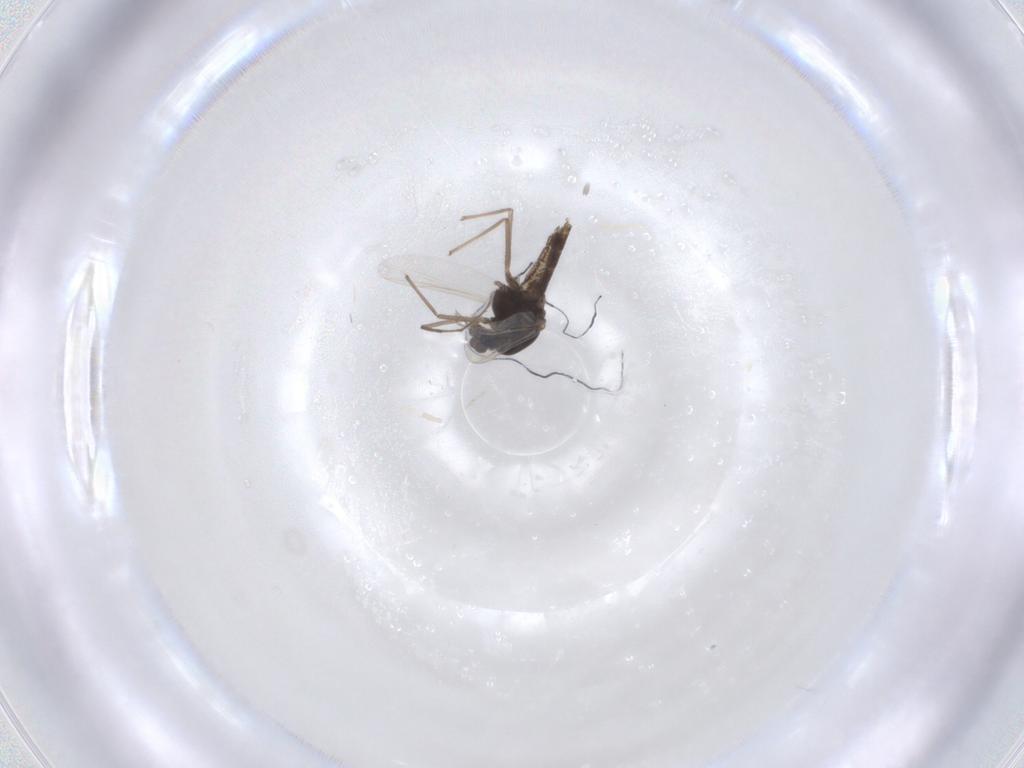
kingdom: Animalia
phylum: Arthropoda
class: Insecta
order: Diptera
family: Chironomidae
